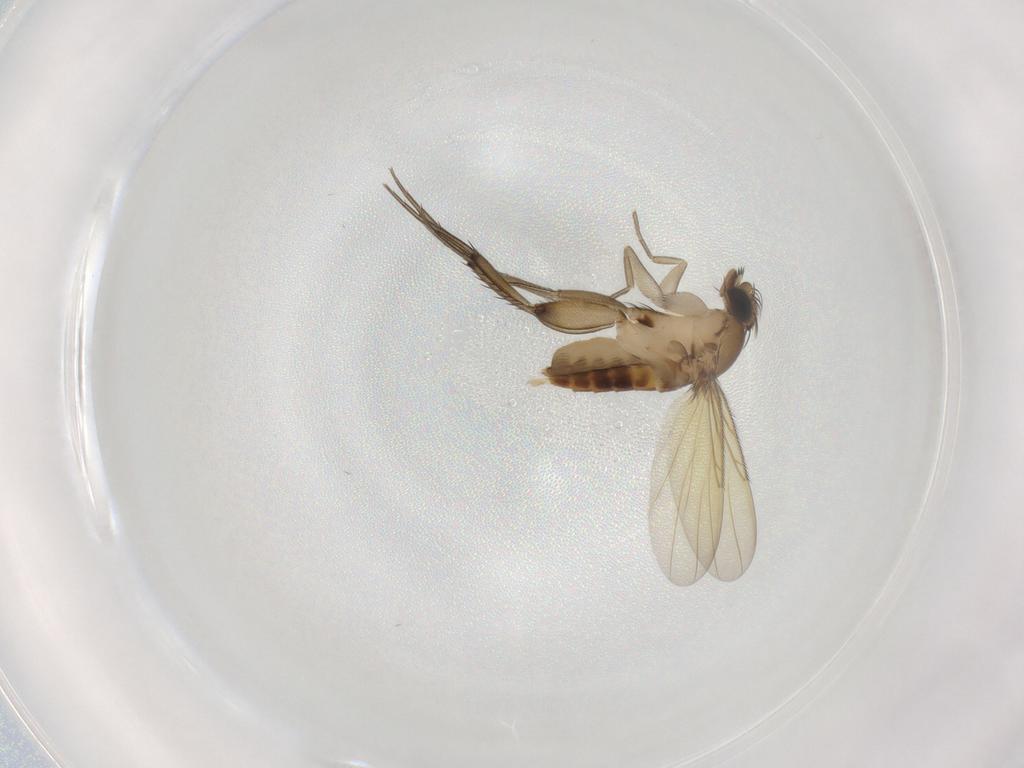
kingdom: Animalia
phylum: Arthropoda
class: Insecta
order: Diptera
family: Phoridae
